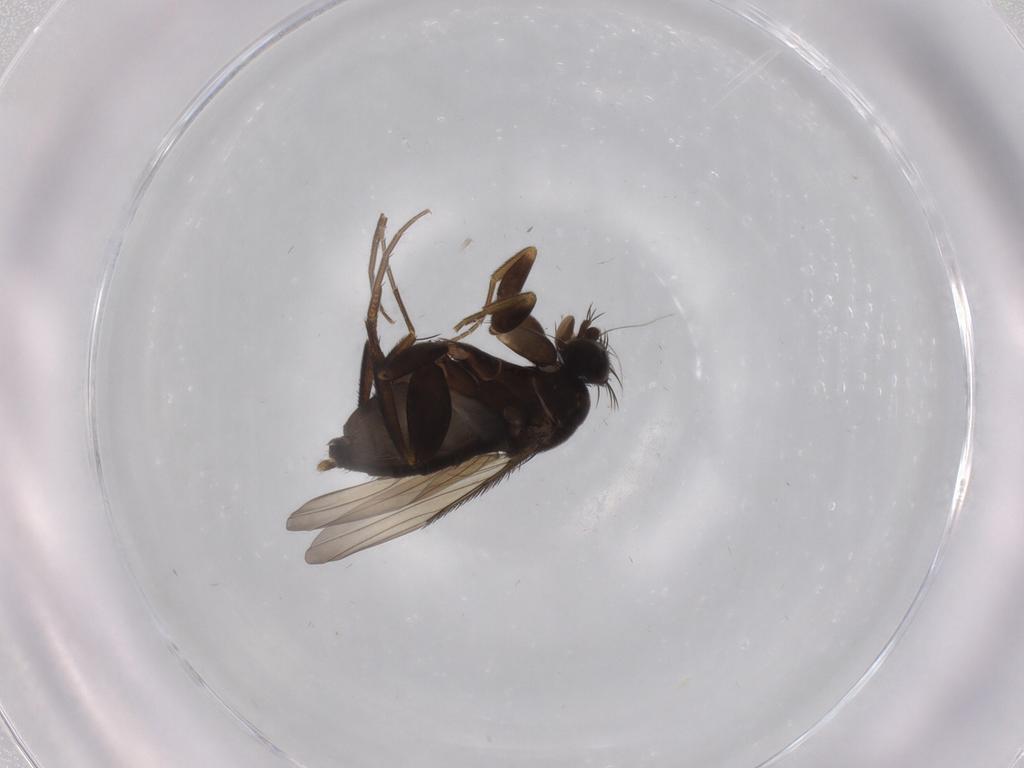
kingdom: Animalia
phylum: Arthropoda
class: Insecta
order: Diptera
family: Phoridae
